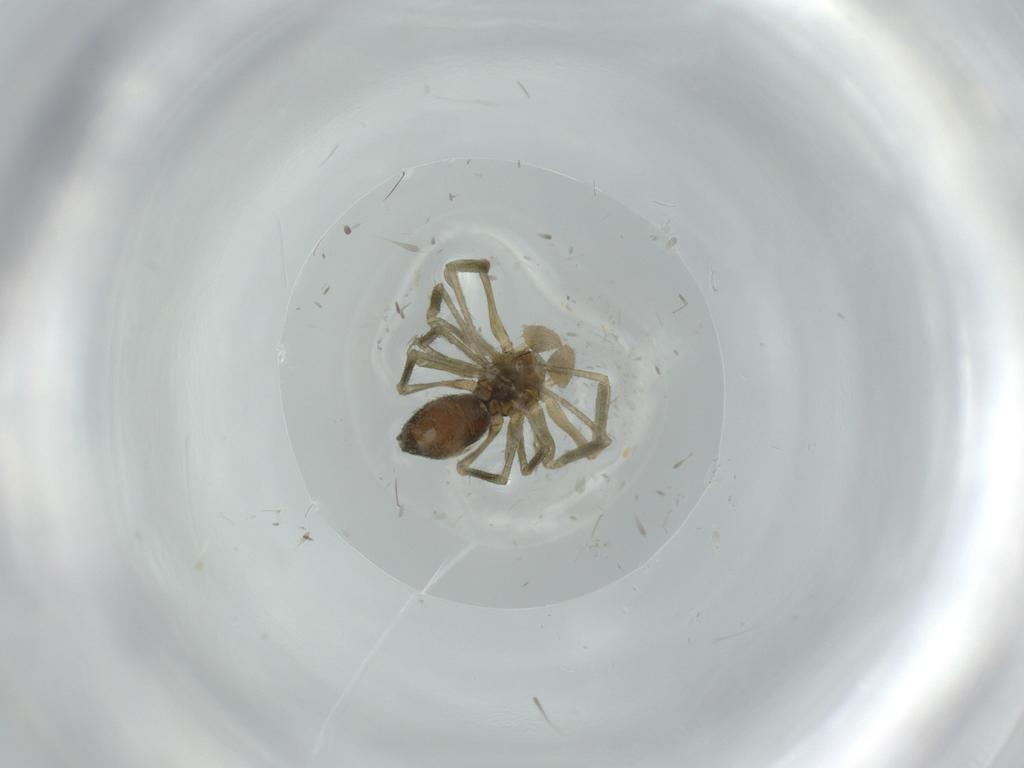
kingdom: Animalia
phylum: Arthropoda
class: Arachnida
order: Araneae
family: Linyphiidae
